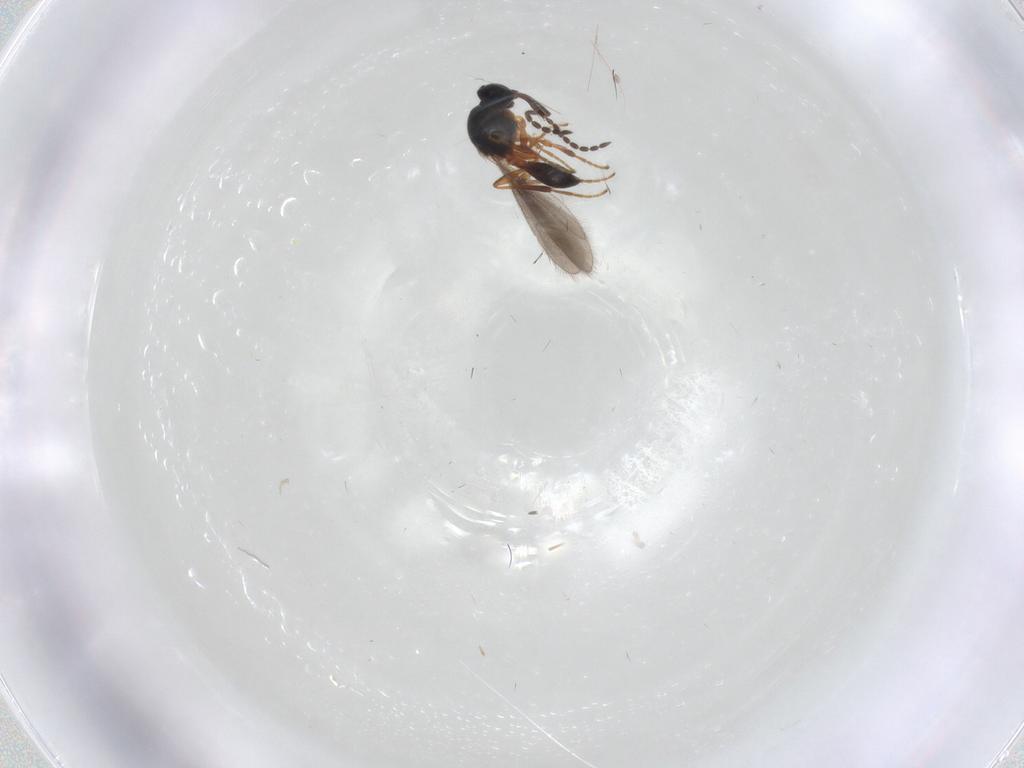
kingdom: Animalia
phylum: Arthropoda
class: Insecta
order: Hymenoptera
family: Platygastridae
